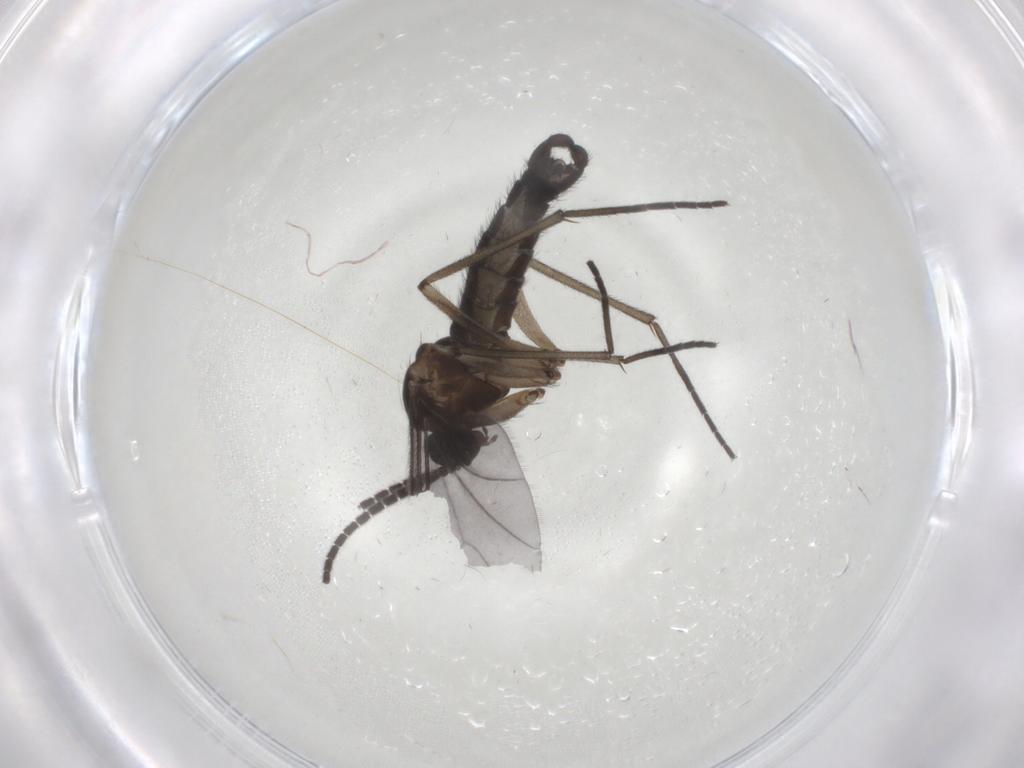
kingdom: Animalia
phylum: Arthropoda
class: Insecta
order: Diptera
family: Sciaridae
